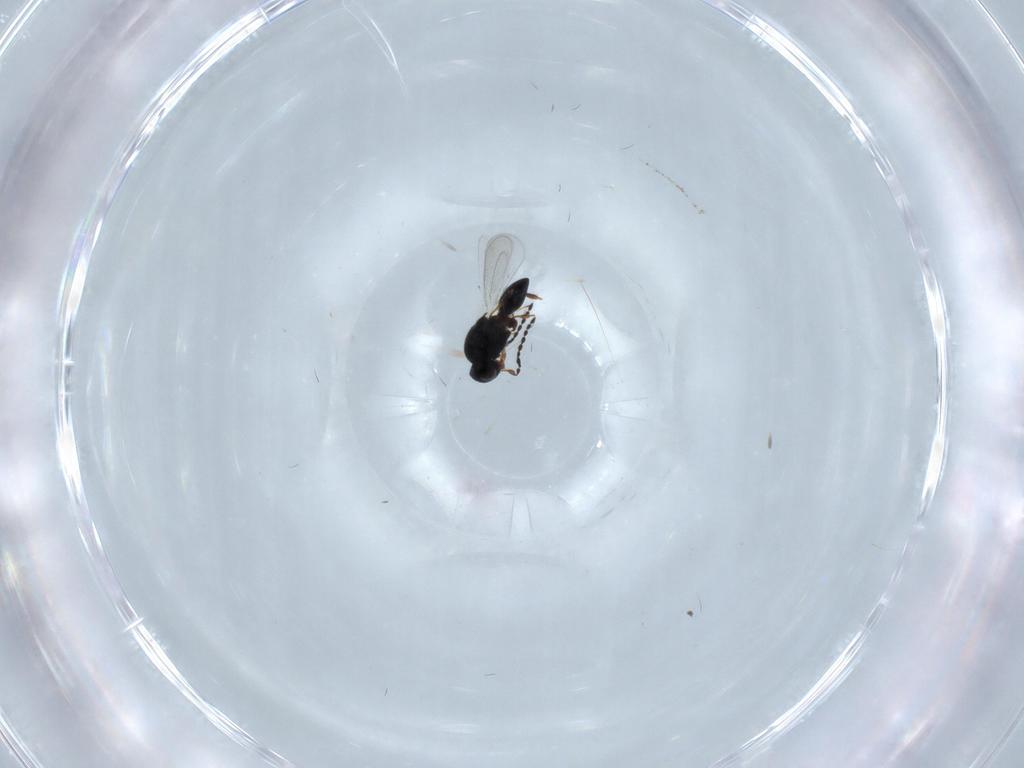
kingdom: Animalia
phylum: Arthropoda
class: Insecta
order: Hymenoptera
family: Platygastridae
